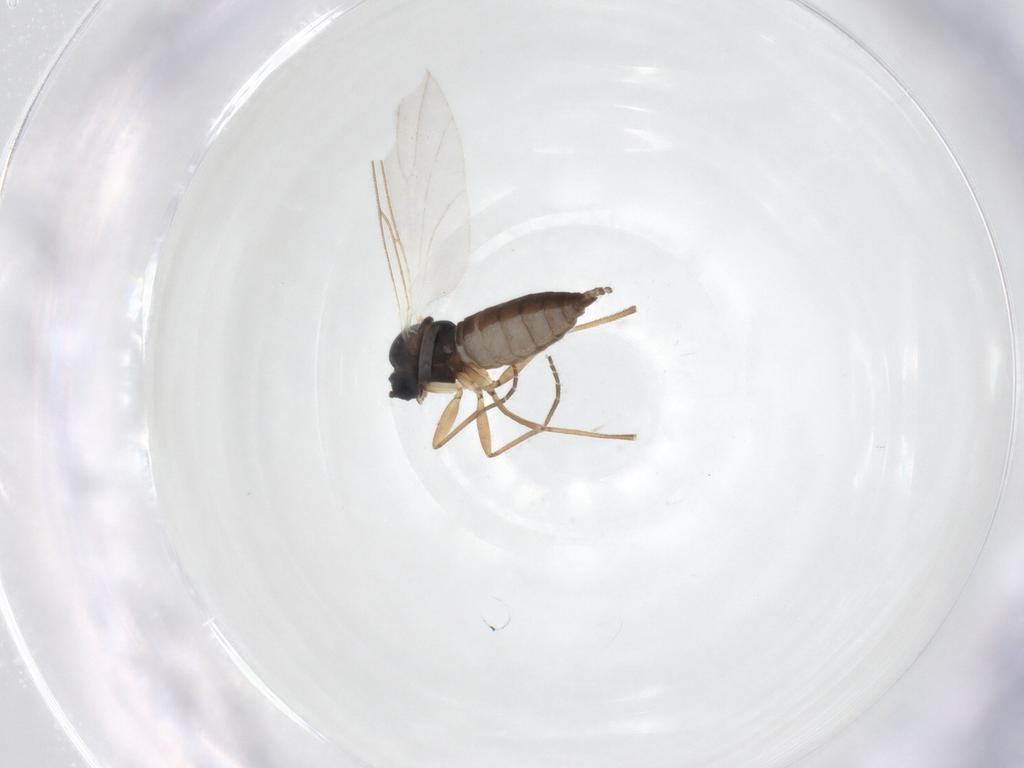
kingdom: Animalia
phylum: Arthropoda
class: Insecta
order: Diptera
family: Sciaridae
